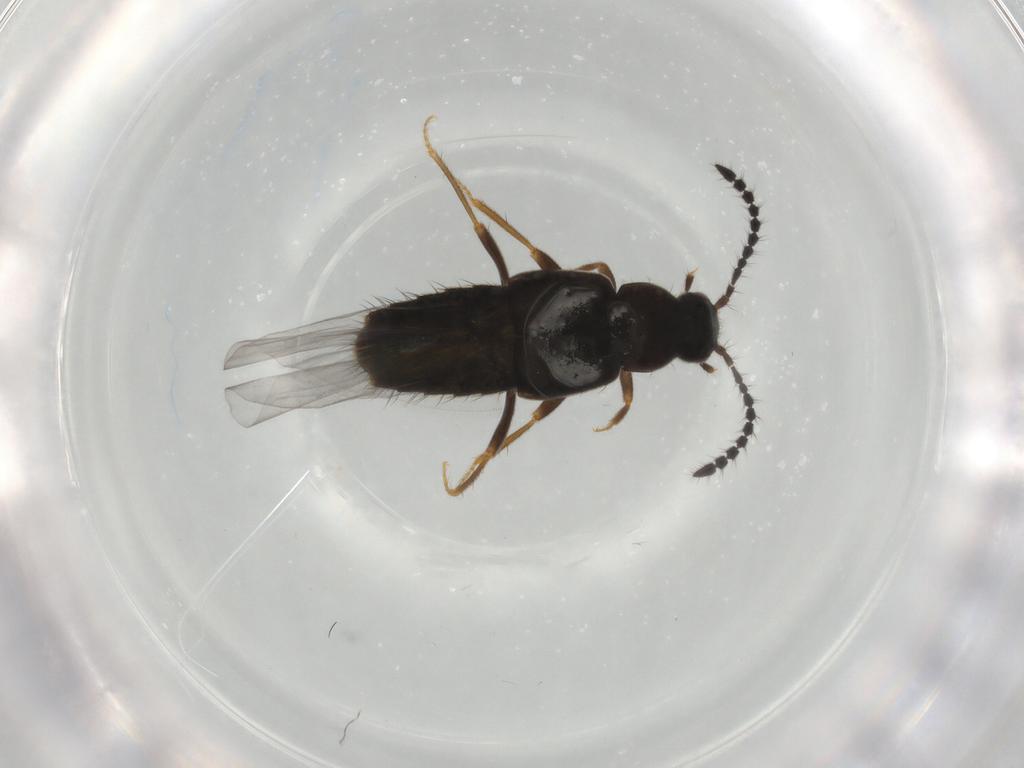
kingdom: Animalia
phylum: Arthropoda
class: Insecta
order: Coleoptera
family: Staphylinidae
